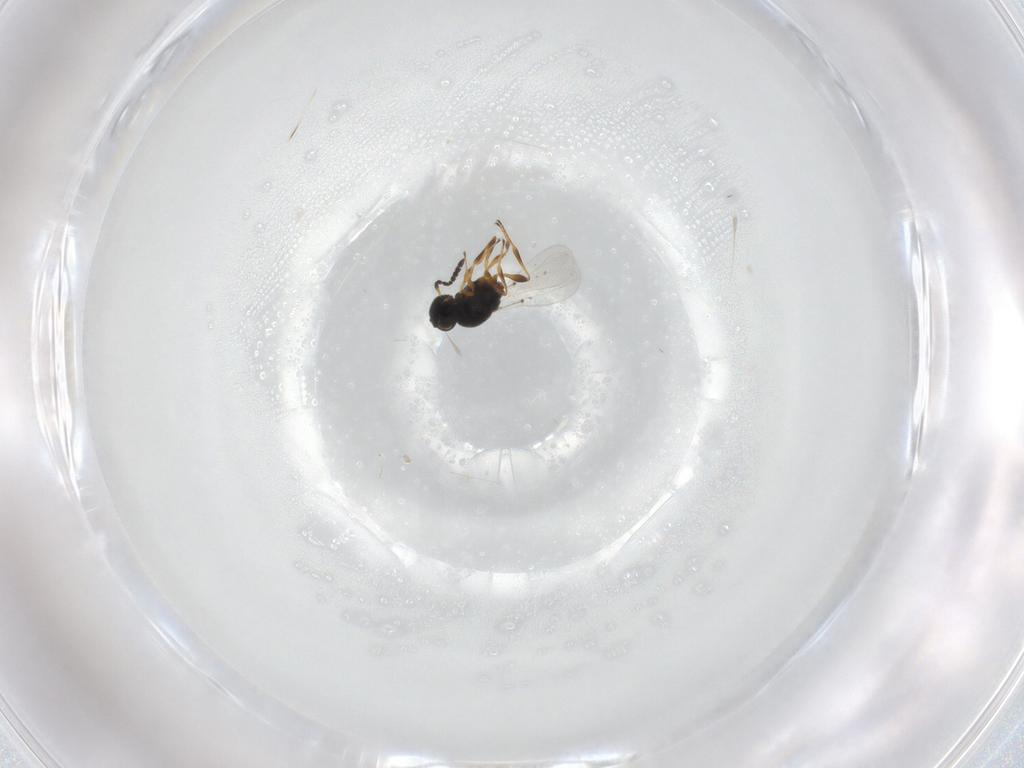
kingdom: Animalia
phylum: Arthropoda
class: Insecta
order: Hymenoptera
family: Platygastridae
